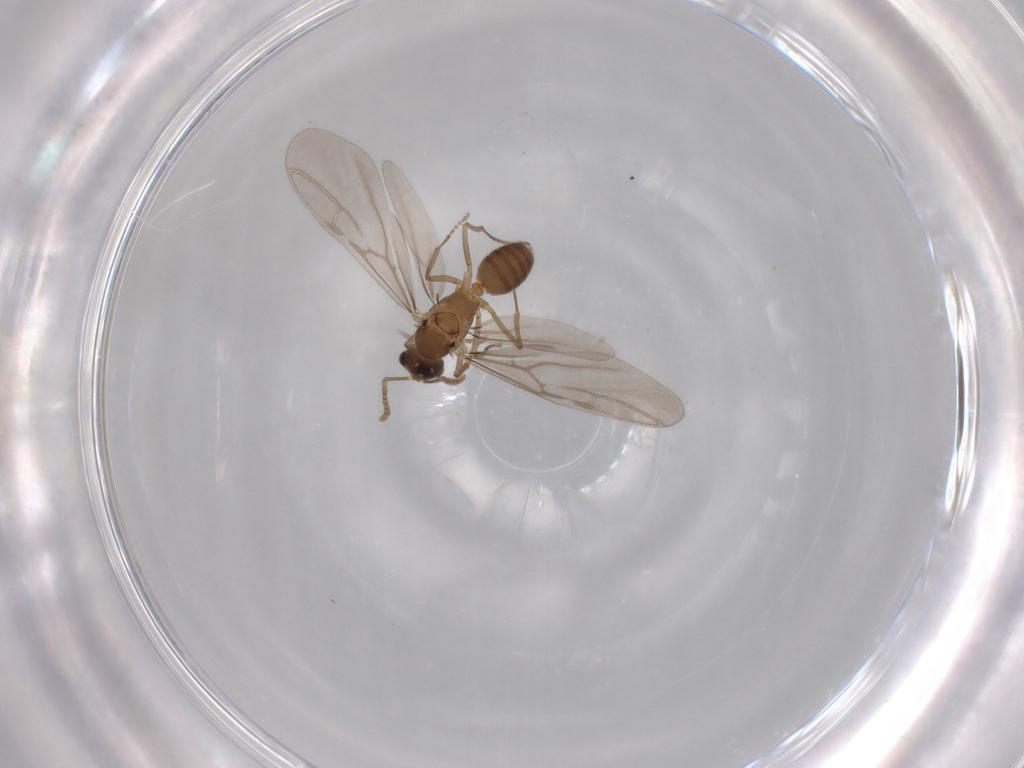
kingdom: Animalia
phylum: Arthropoda
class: Insecta
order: Hymenoptera
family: Formicidae
